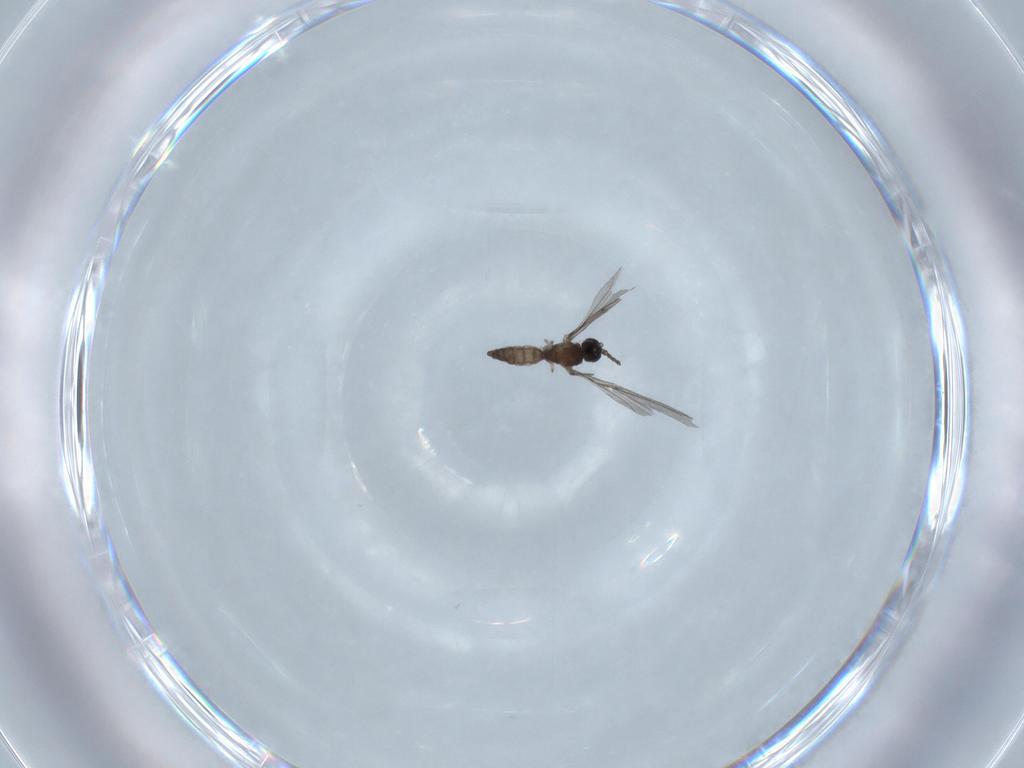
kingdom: Animalia
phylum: Arthropoda
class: Insecta
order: Diptera
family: Sciaridae
